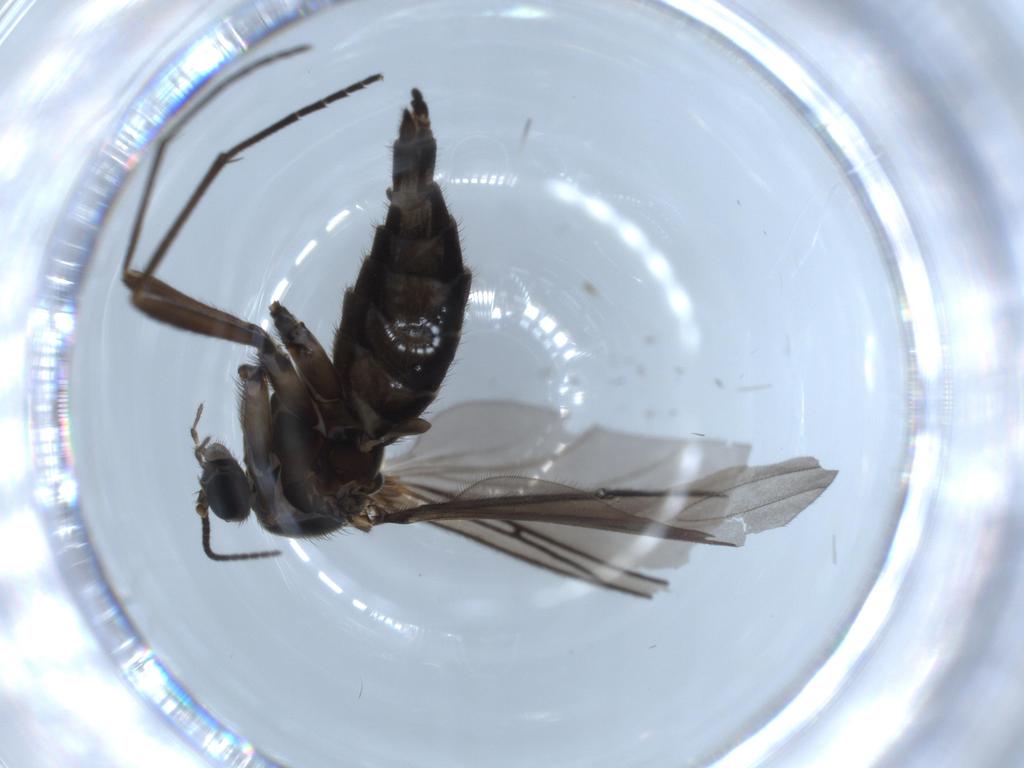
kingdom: Animalia
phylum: Arthropoda
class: Insecta
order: Diptera
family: Sciaridae
